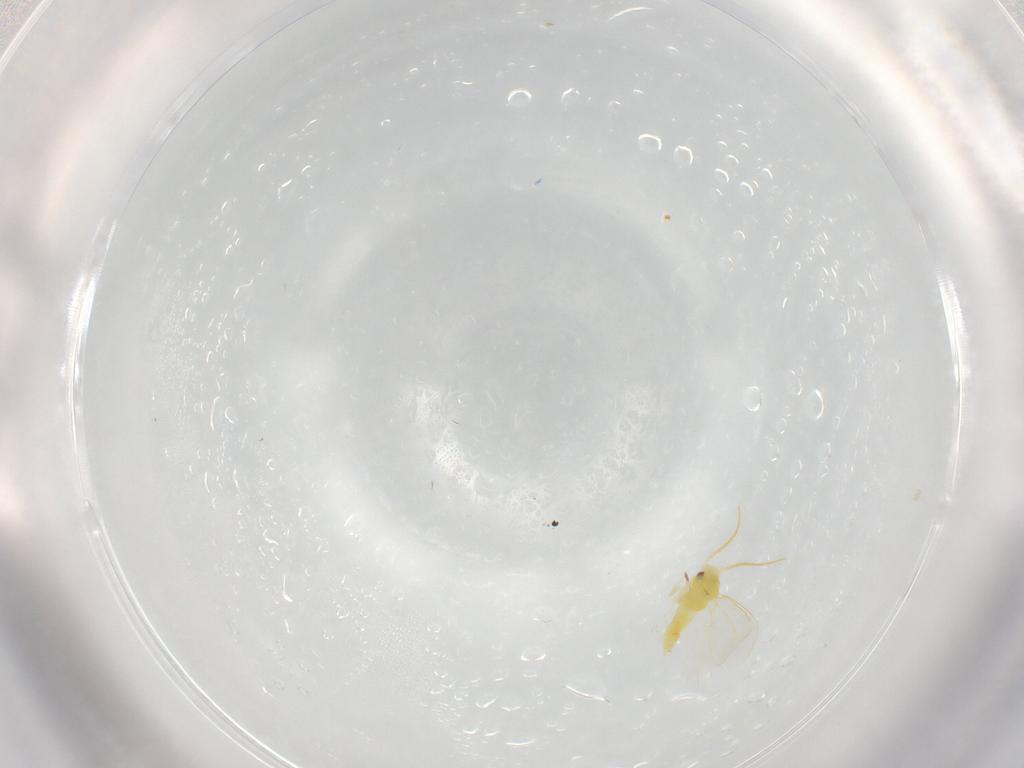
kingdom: Animalia
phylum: Arthropoda
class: Insecta
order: Hemiptera
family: Aleyrodidae
